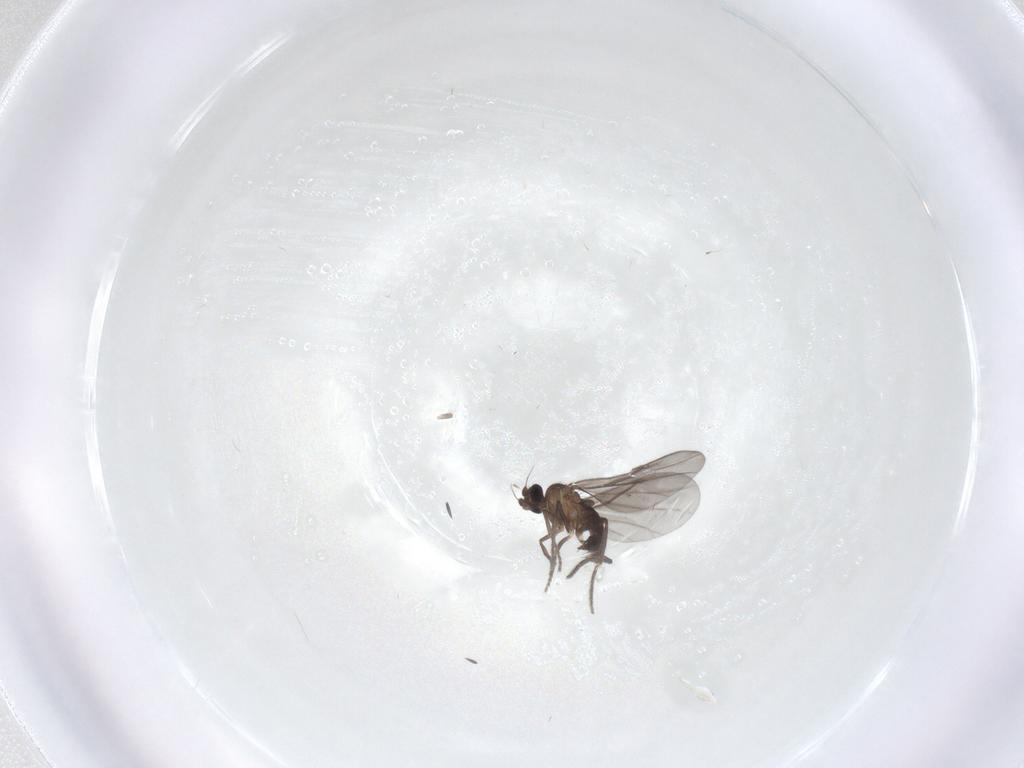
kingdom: Animalia
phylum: Arthropoda
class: Insecta
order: Diptera
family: Phoridae
